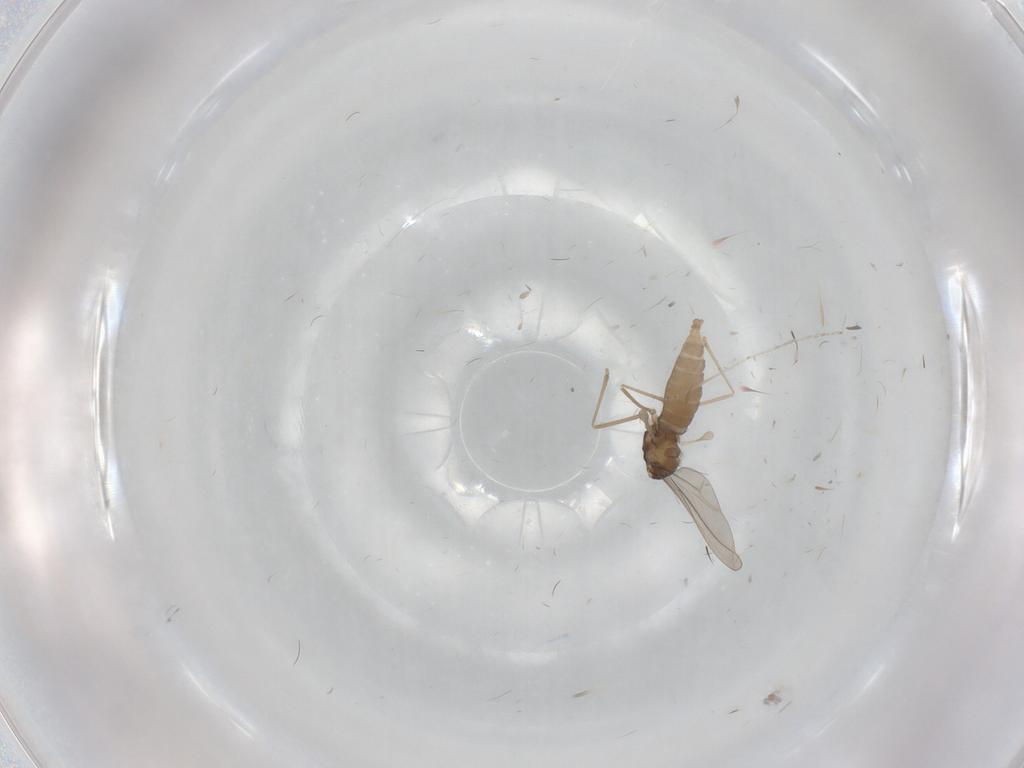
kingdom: Animalia
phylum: Arthropoda
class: Insecta
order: Diptera
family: Cecidomyiidae
